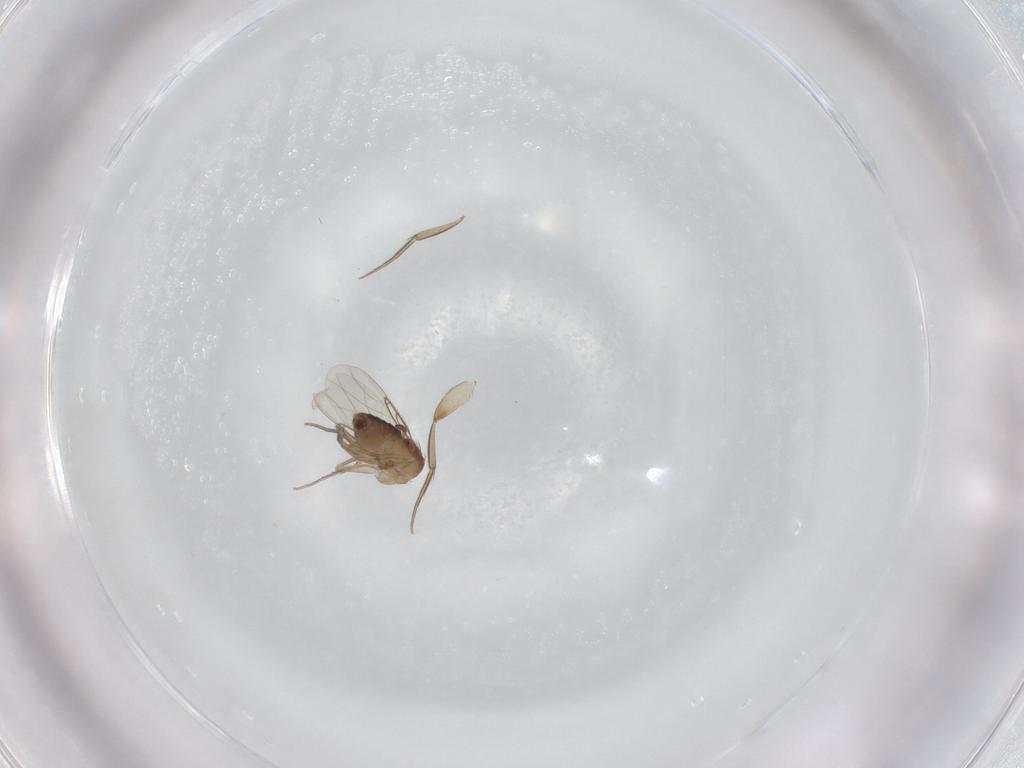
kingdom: Animalia
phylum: Arthropoda
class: Insecta
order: Diptera
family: Phoridae
